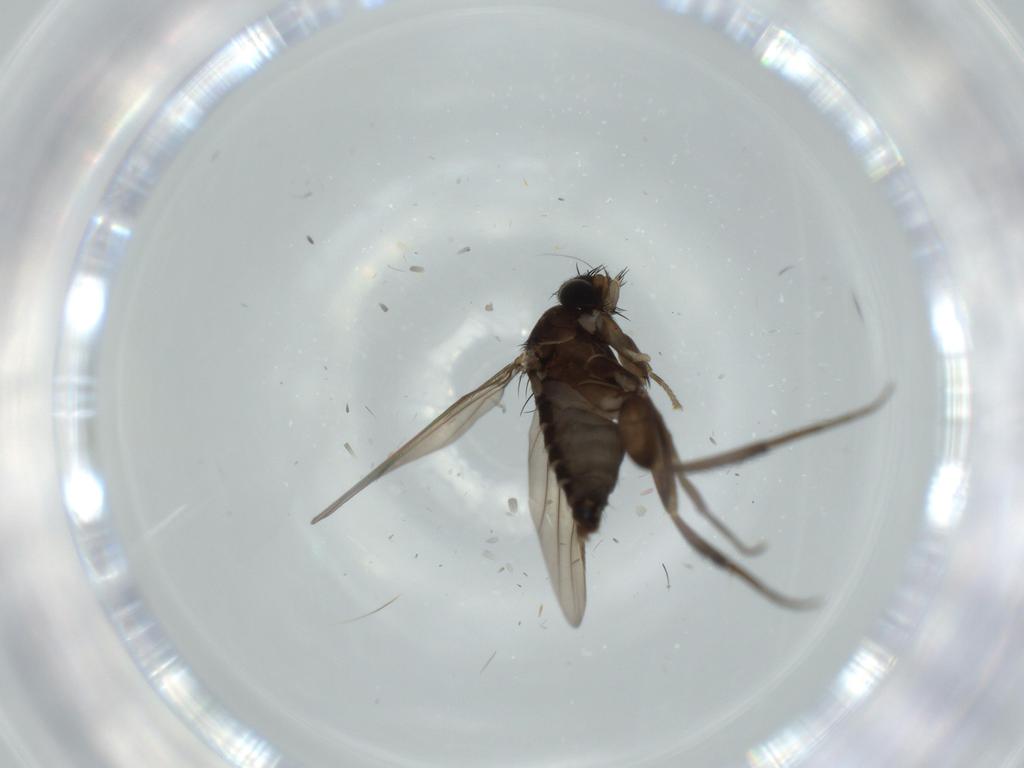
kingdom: Animalia
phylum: Arthropoda
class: Insecta
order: Diptera
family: Phoridae
